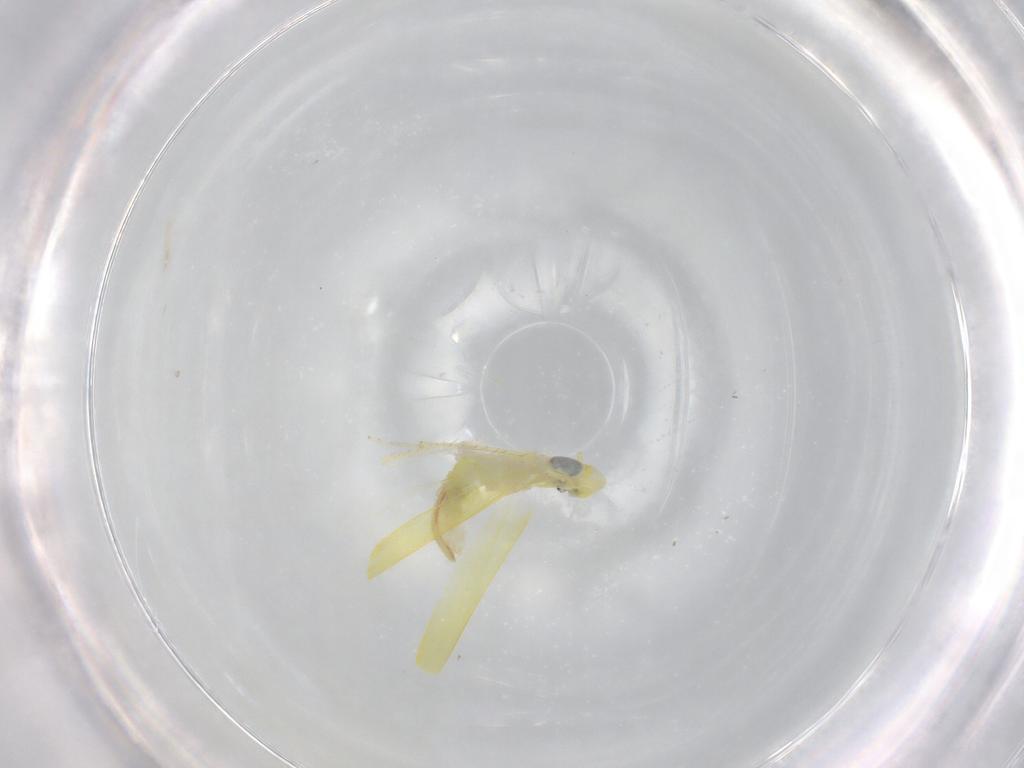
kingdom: Animalia
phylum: Arthropoda
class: Insecta
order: Hemiptera
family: Cicadellidae
